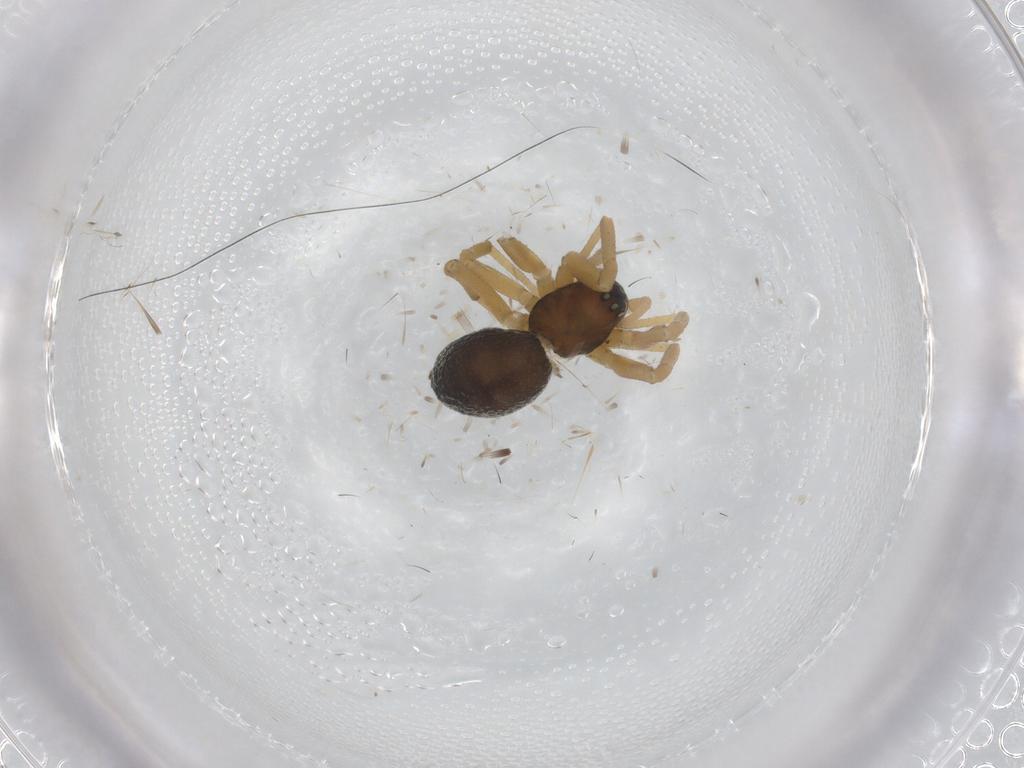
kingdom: Animalia
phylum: Arthropoda
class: Arachnida
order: Araneae
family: Linyphiidae
